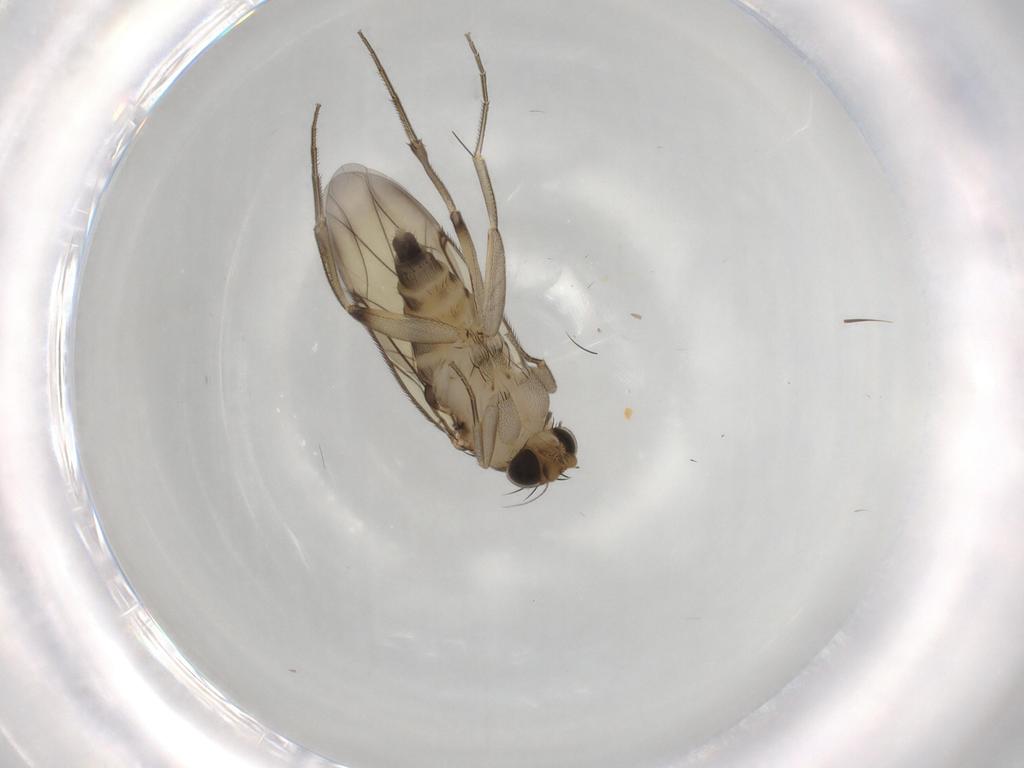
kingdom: Animalia
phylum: Arthropoda
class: Insecta
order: Diptera
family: Phoridae
